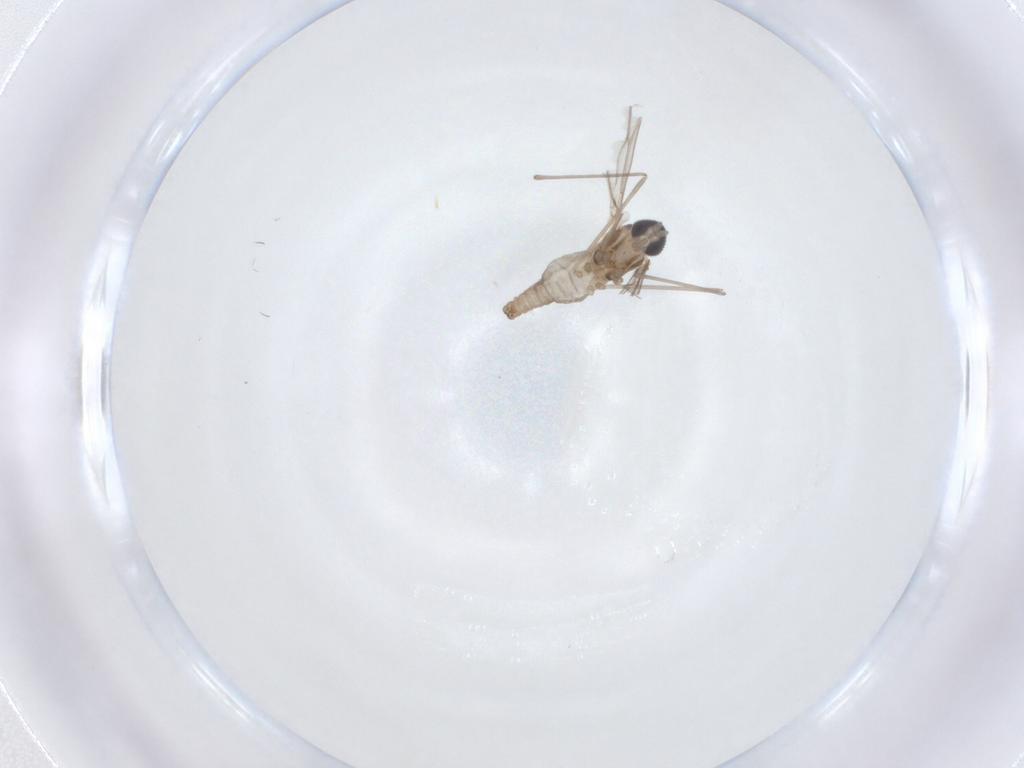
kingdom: Animalia
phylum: Arthropoda
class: Insecta
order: Diptera
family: Cecidomyiidae
